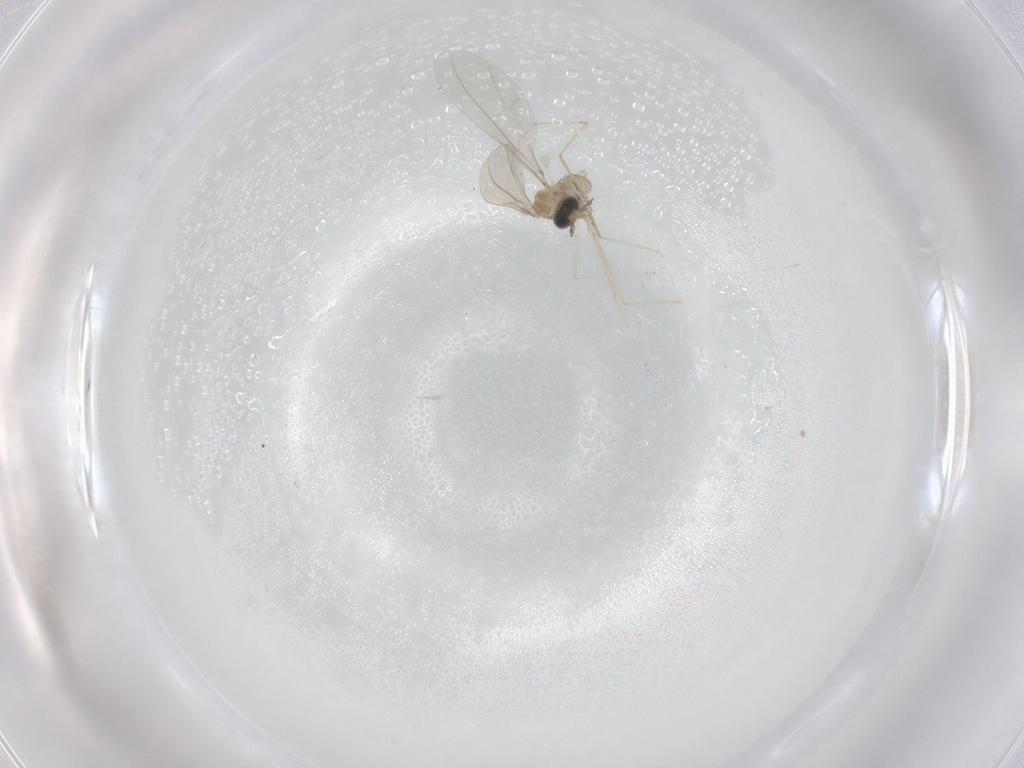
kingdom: Animalia
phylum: Arthropoda
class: Insecta
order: Diptera
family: Cecidomyiidae
